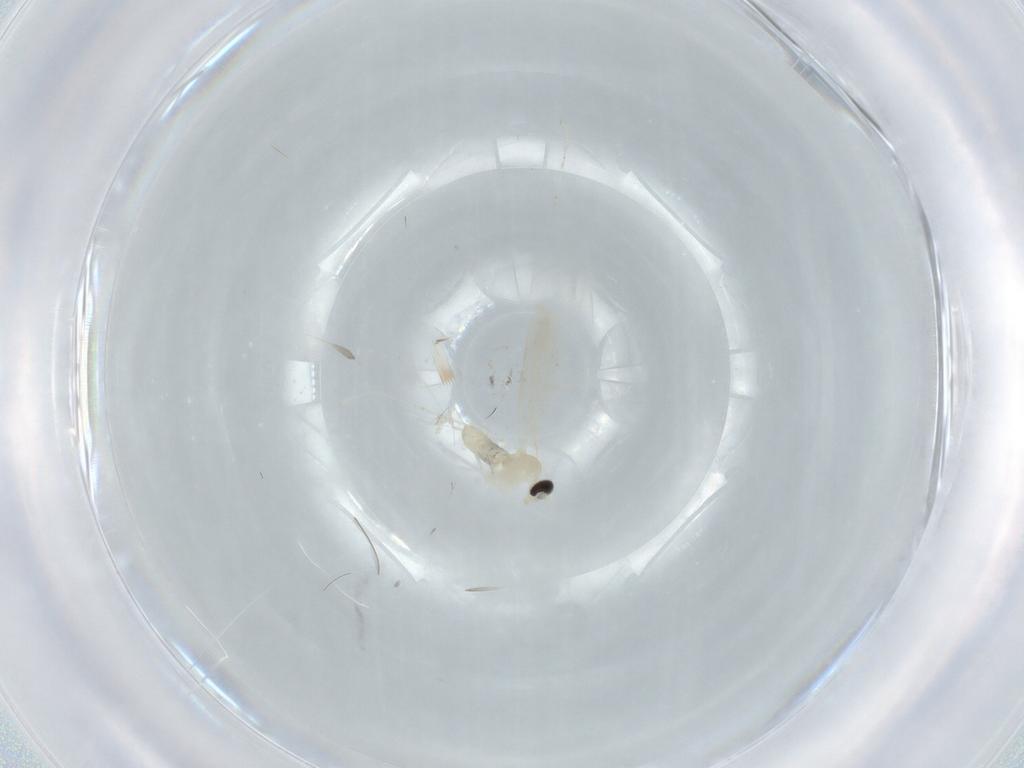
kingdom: Animalia
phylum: Arthropoda
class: Insecta
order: Diptera
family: Cecidomyiidae
